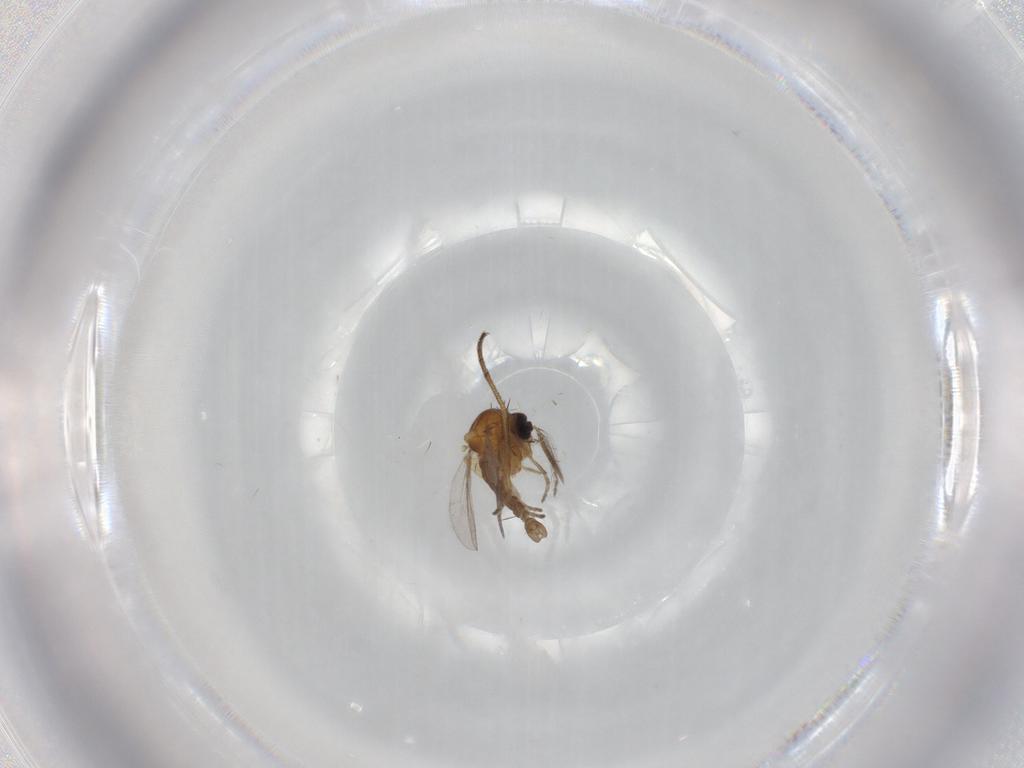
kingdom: Animalia
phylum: Arthropoda
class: Insecta
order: Diptera
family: Ceratopogonidae
